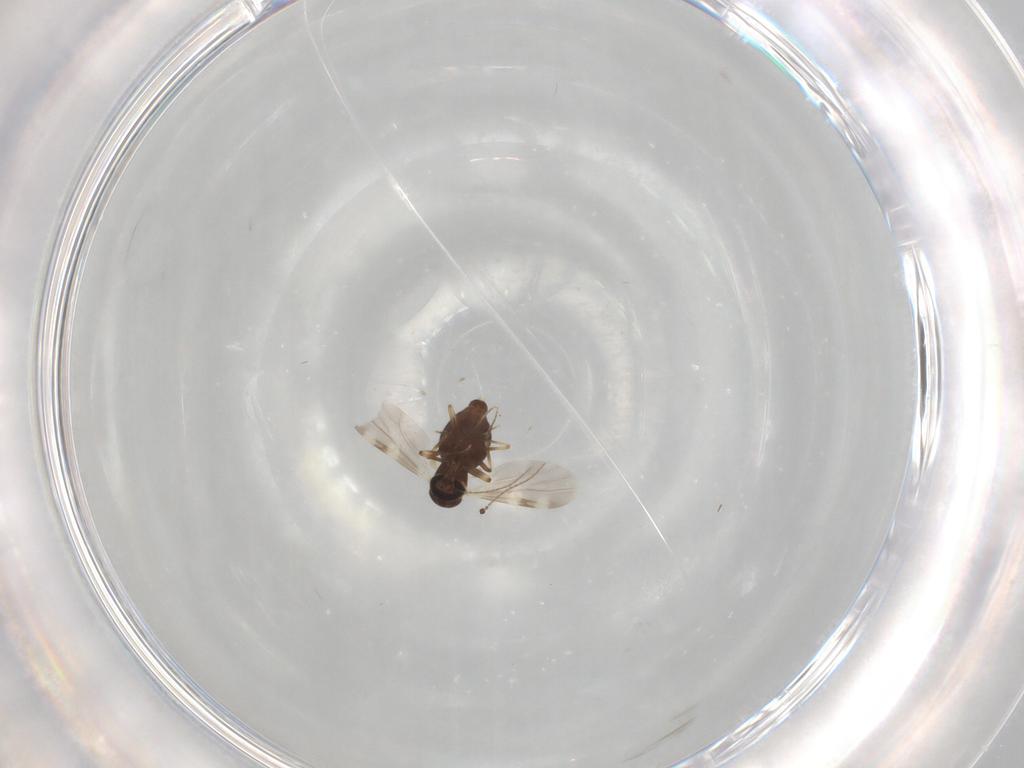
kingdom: Animalia
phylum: Arthropoda
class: Insecta
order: Diptera
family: Ceratopogonidae
